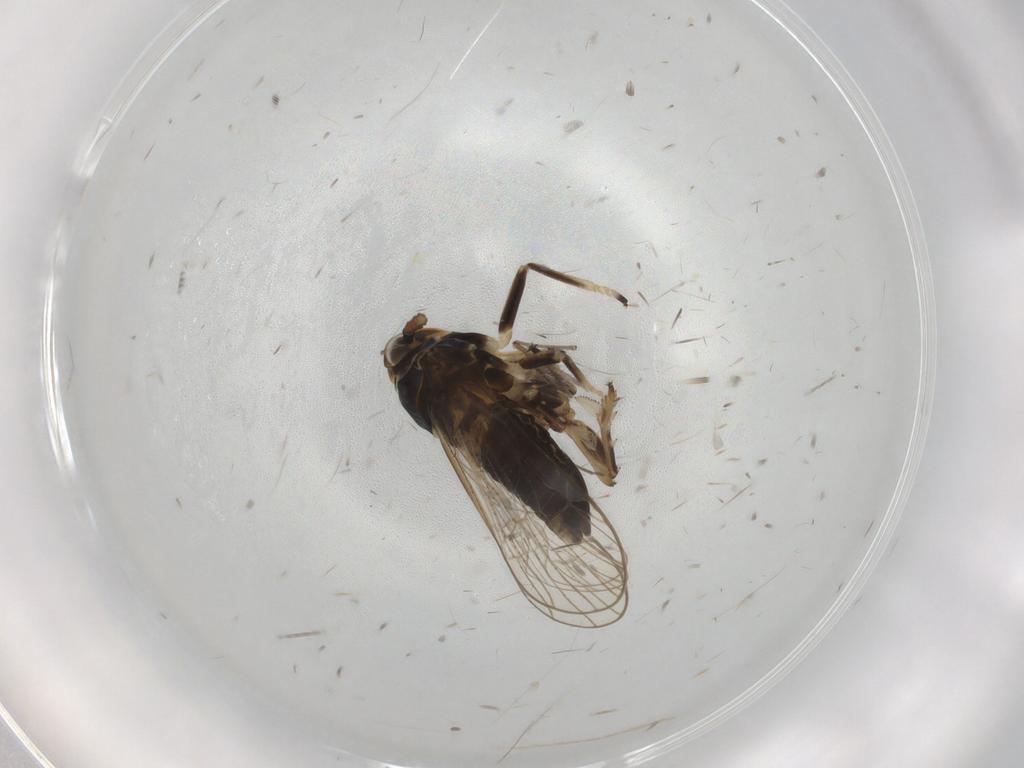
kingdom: Animalia
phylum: Arthropoda
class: Insecta
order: Hemiptera
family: Delphacidae
